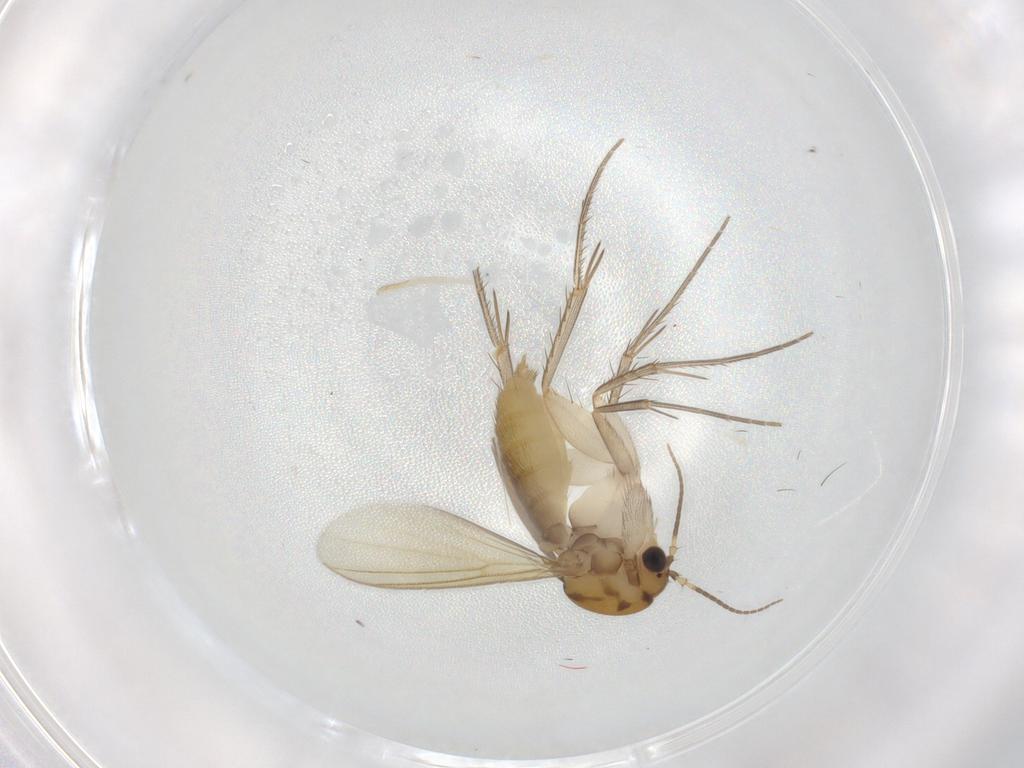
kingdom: Animalia
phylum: Arthropoda
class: Insecta
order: Diptera
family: Mycetophilidae
